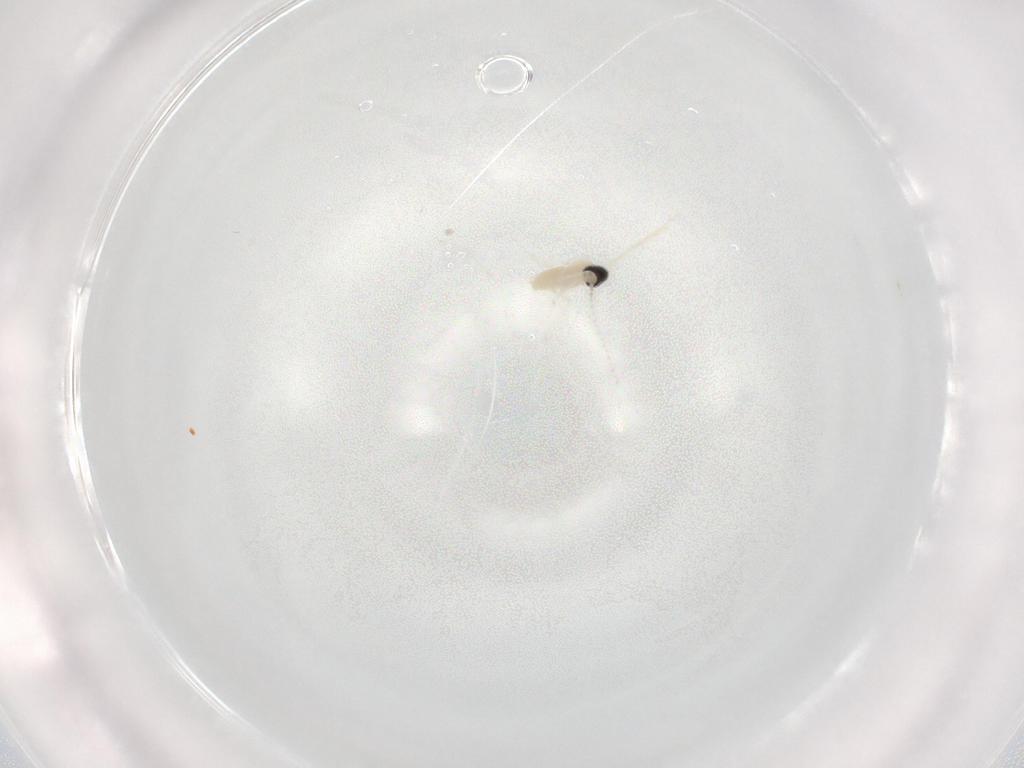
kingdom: Animalia
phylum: Arthropoda
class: Insecta
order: Diptera
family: Cecidomyiidae
